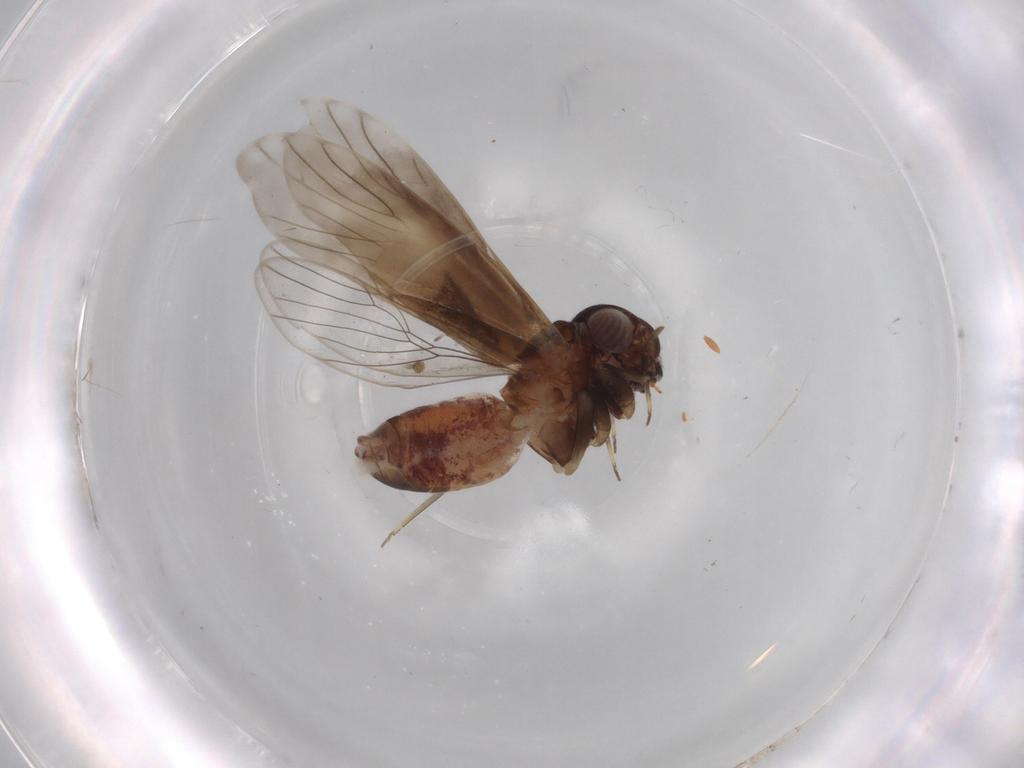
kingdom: Animalia
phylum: Arthropoda
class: Insecta
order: Psocodea
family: Amphientomidae
